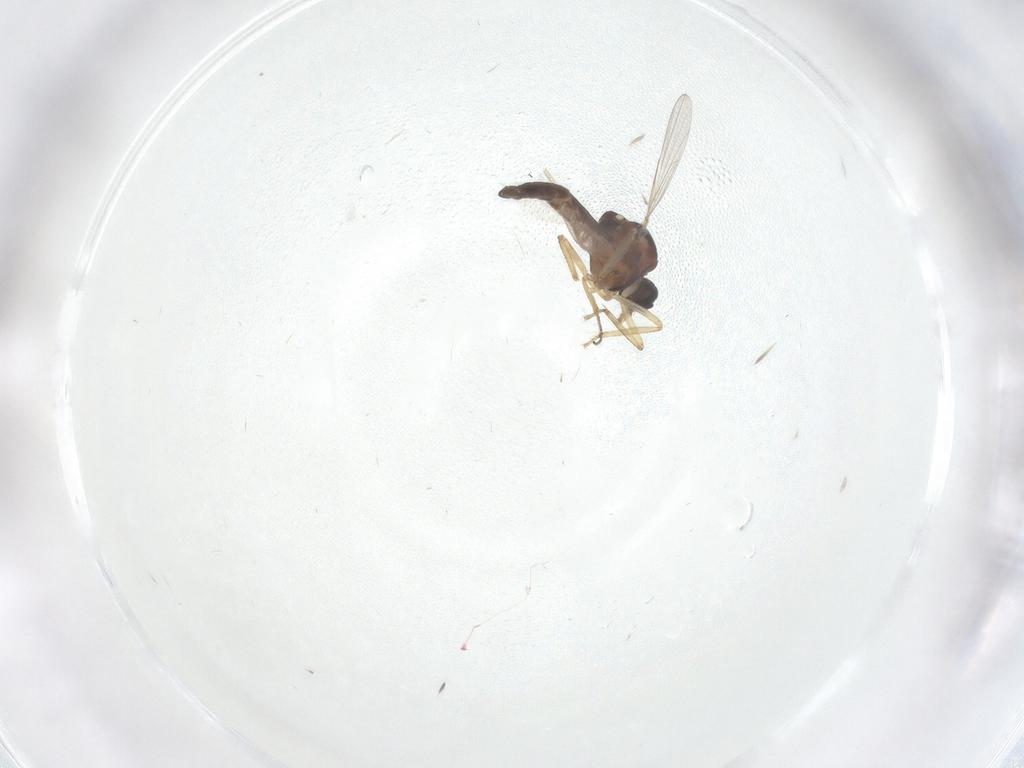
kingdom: Animalia
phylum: Arthropoda
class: Insecta
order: Diptera
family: Ceratopogonidae
